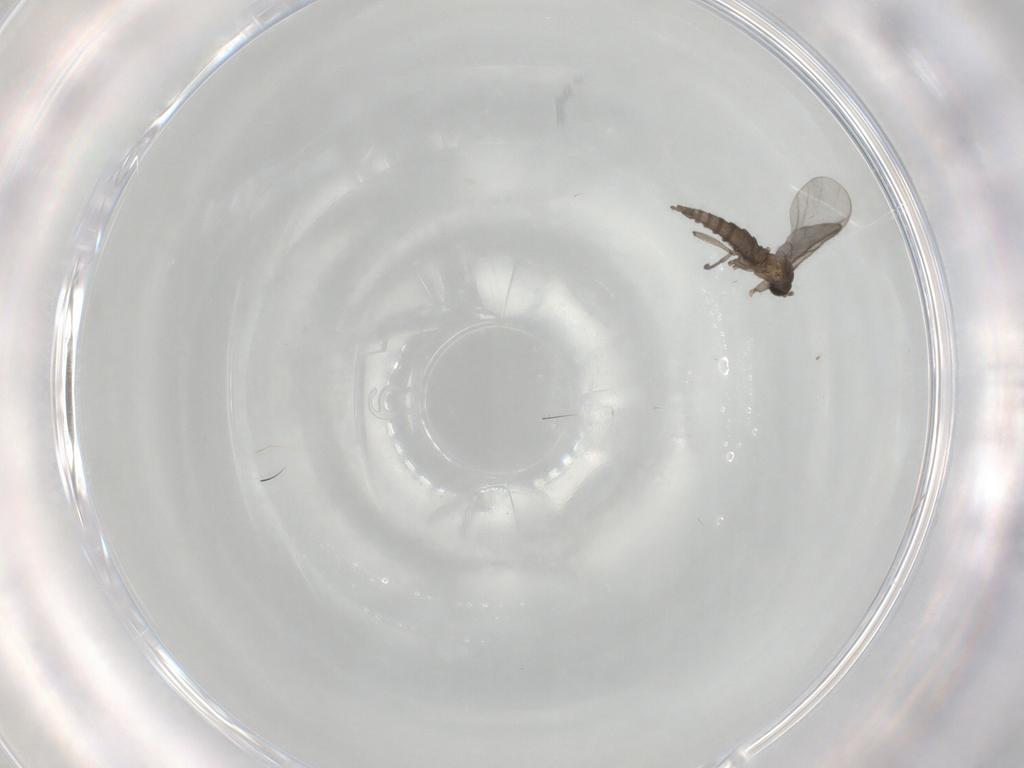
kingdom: Animalia
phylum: Arthropoda
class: Insecta
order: Diptera
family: Sciaridae
